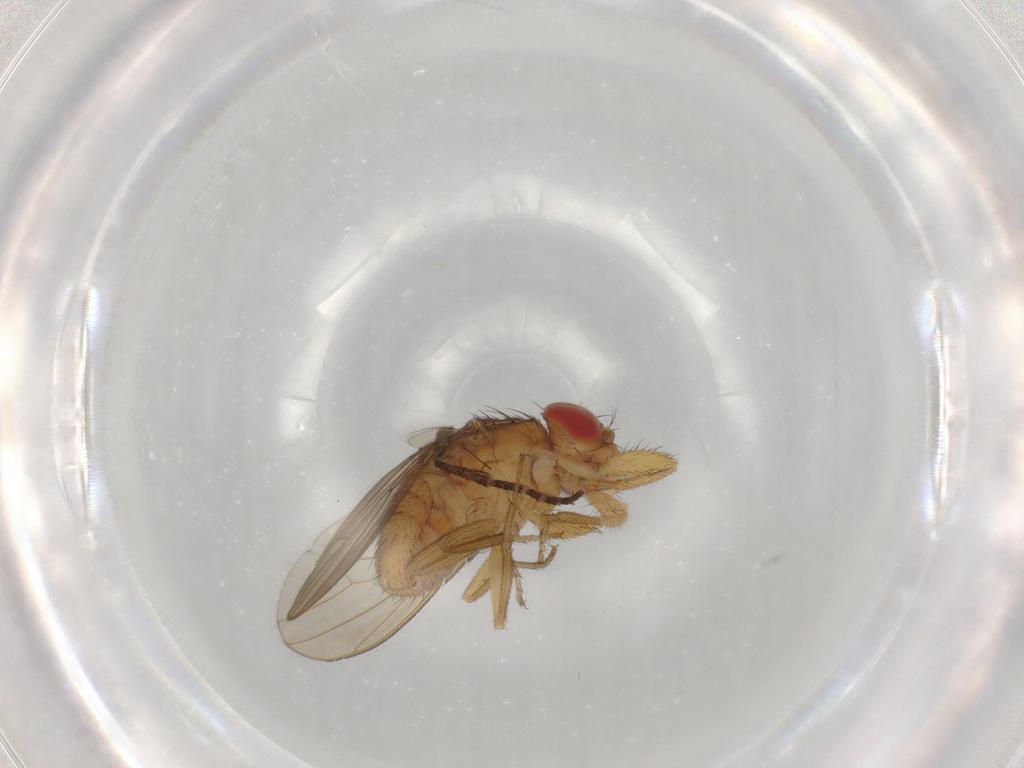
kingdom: Animalia
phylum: Arthropoda
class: Insecta
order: Diptera
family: Drosophilidae
